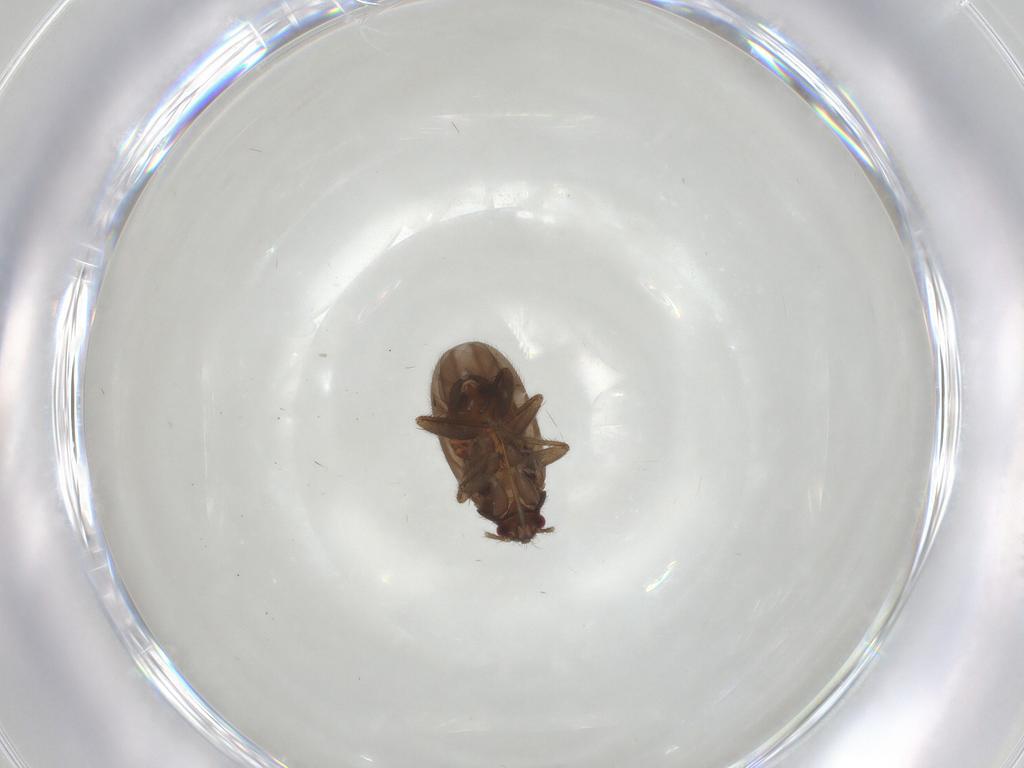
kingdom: Animalia
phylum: Arthropoda
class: Insecta
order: Hemiptera
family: Ceratocombidae
